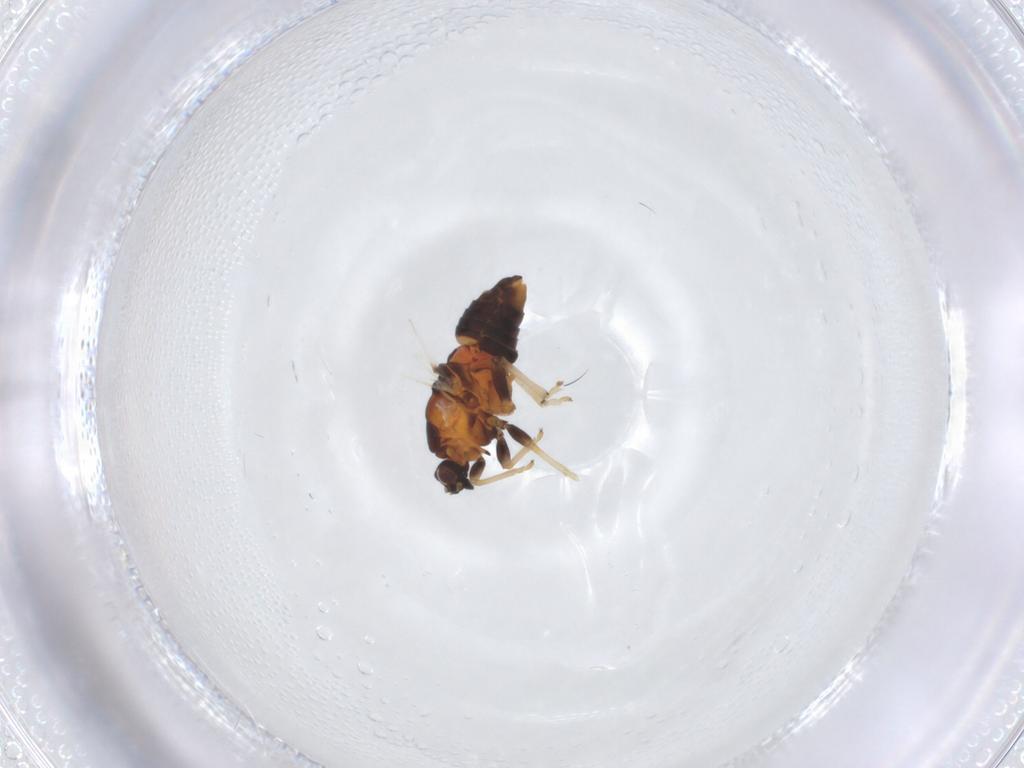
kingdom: Animalia
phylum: Arthropoda
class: Insecta
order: Hemiptera
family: Triozidae
